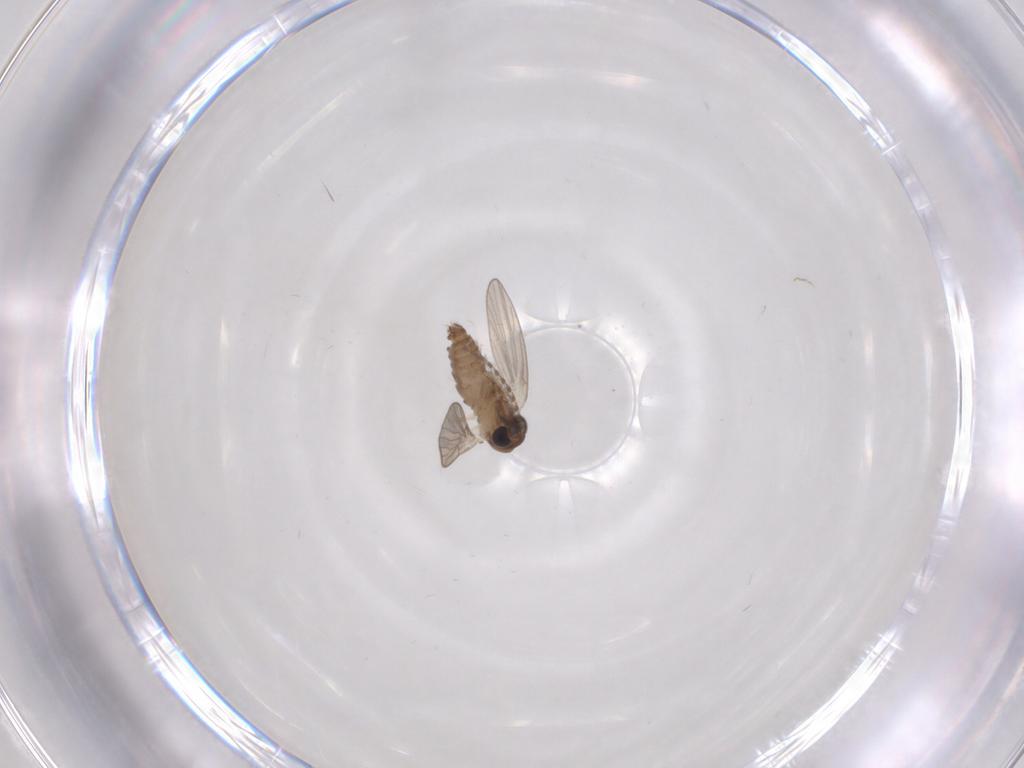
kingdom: Animalia
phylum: Arthropoda
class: Insecta
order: Diptera
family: Psychodidae
